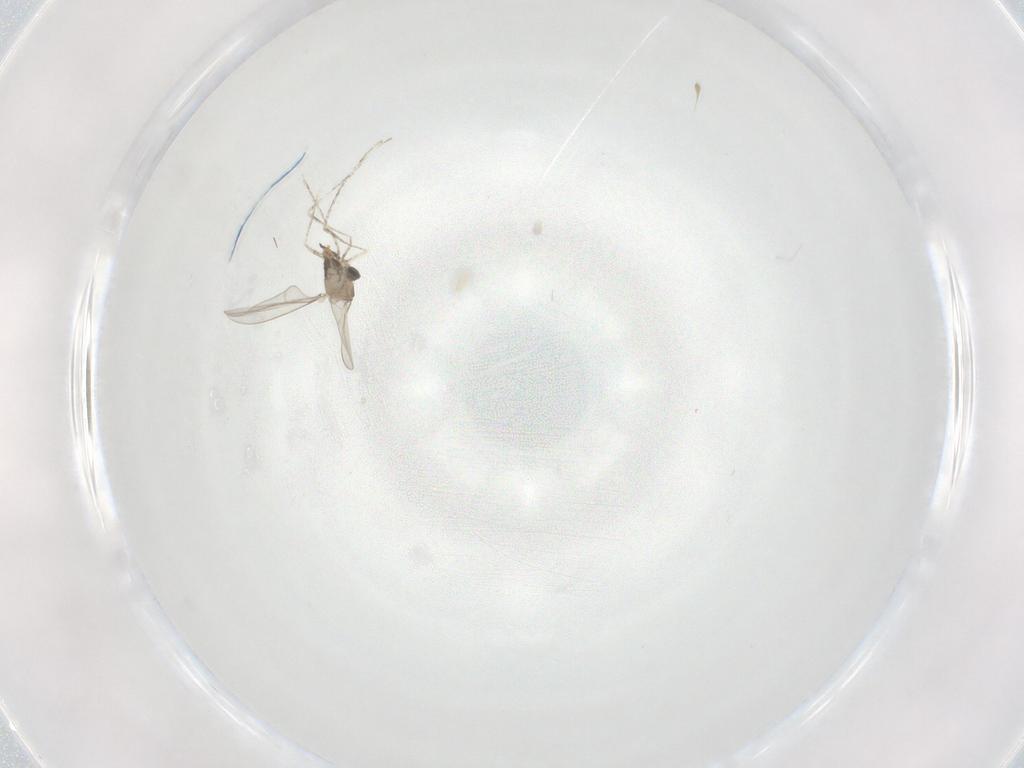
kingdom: Animalia
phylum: Arthropoda
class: Insecta
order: Diptera
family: Cecidomyiidae
